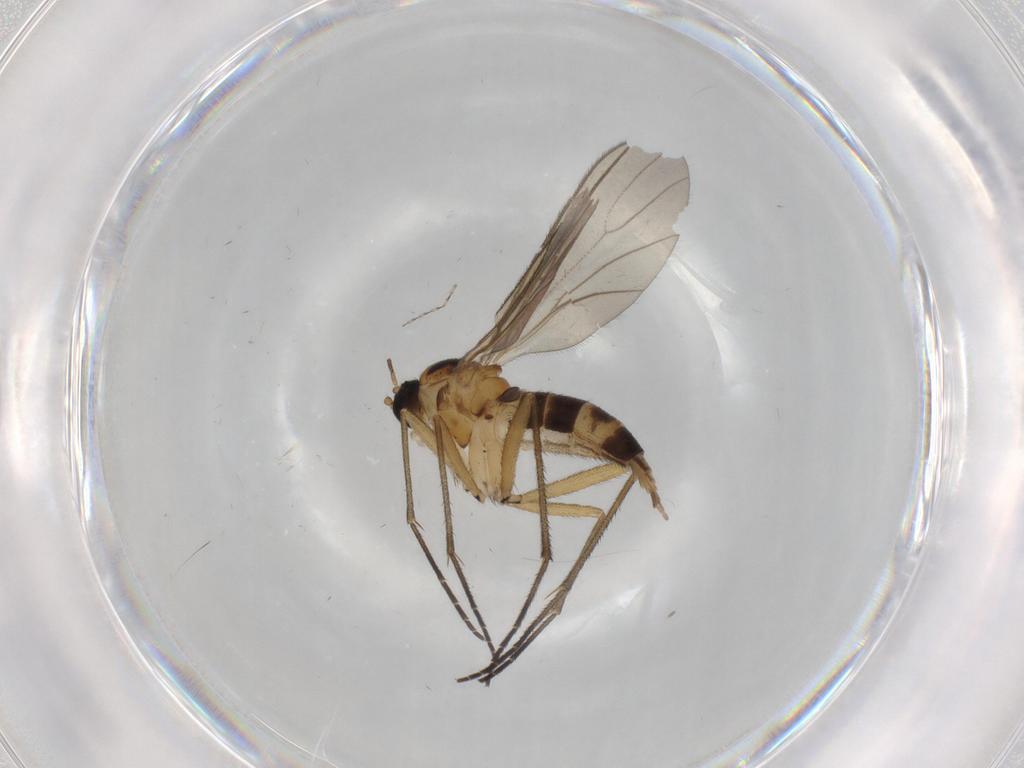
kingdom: Animalia
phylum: Arthropoda
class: Insecta
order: Diptera
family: Sciaridae
